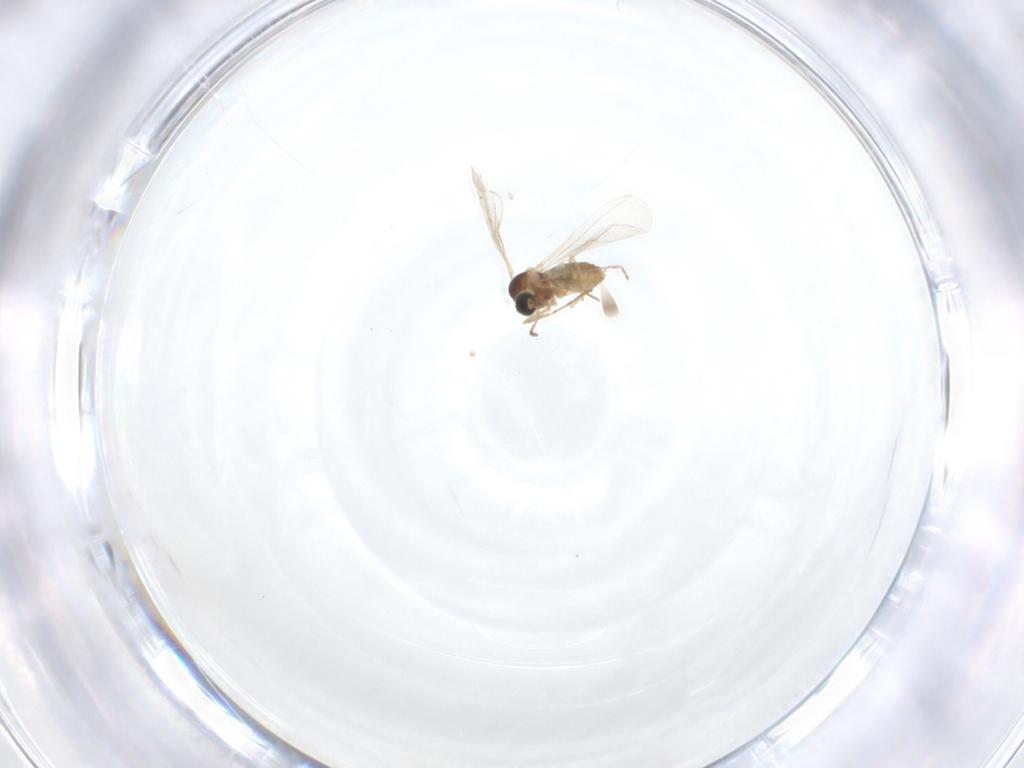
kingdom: Animalia
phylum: Arthropoda
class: Insecta
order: Diptera
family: Cecidomyiidae
